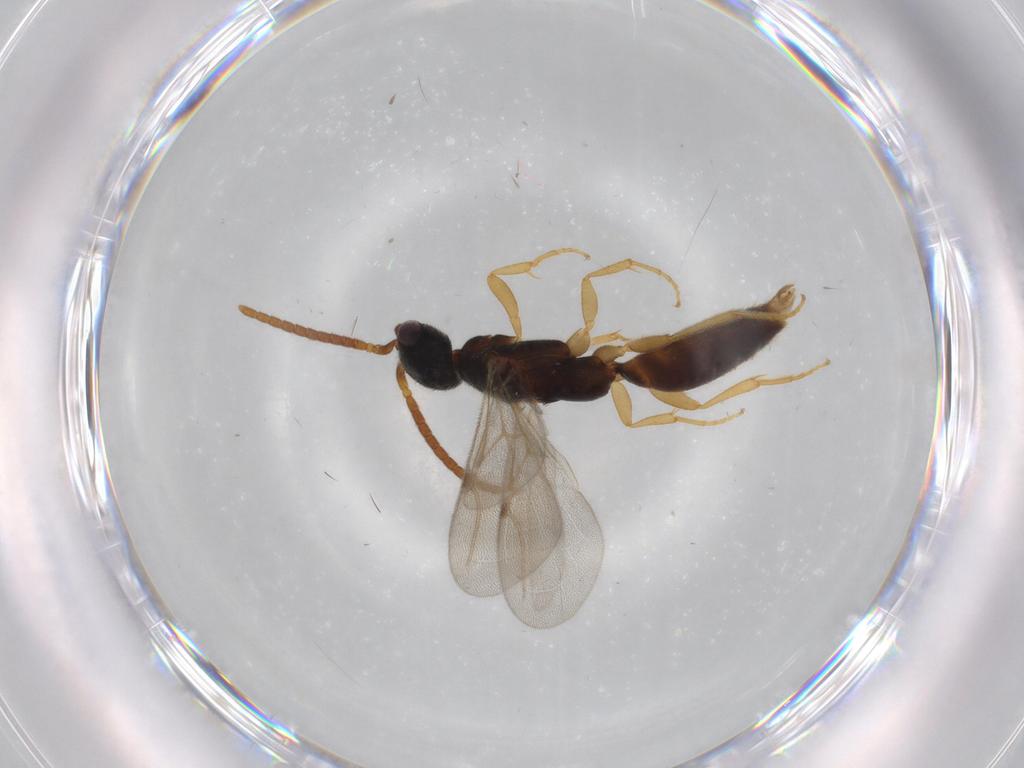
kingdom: Animalia
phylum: Arthropoda
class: Insecta
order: Hymenoptera
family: Bethylidae
